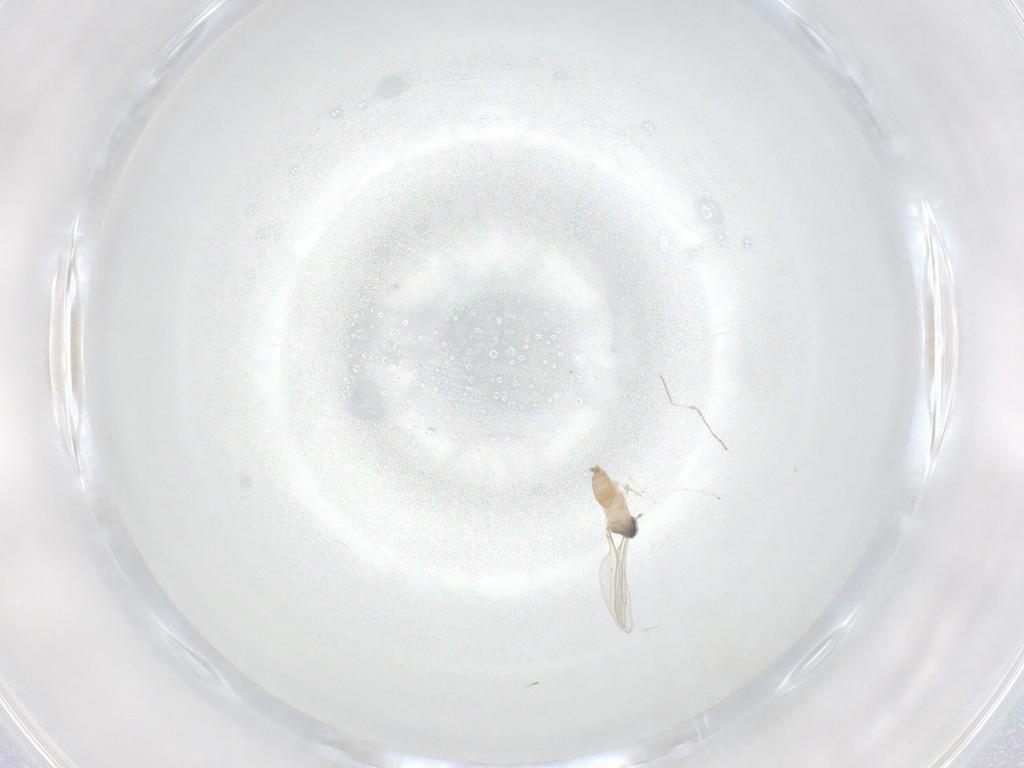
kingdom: Animalia
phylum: Arthropoda
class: Insecta
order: Diptera
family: Cecidomyiidae
